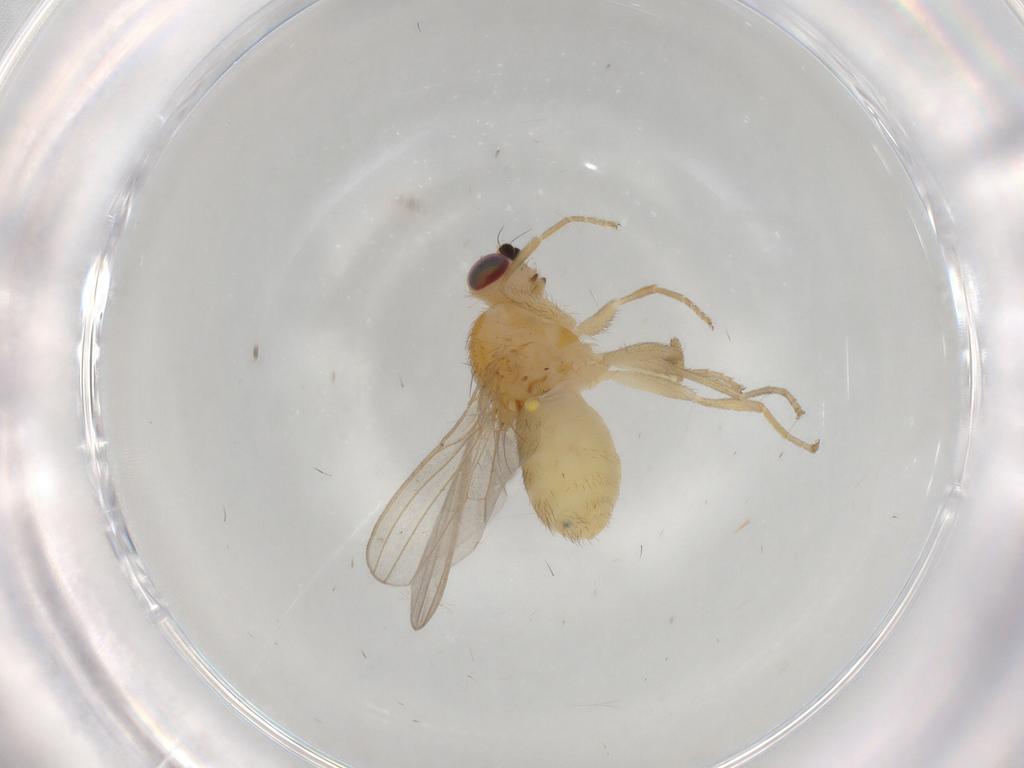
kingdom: Animalia
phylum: Arthropoda
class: Insecta
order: Diptera
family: Chyromyidae
